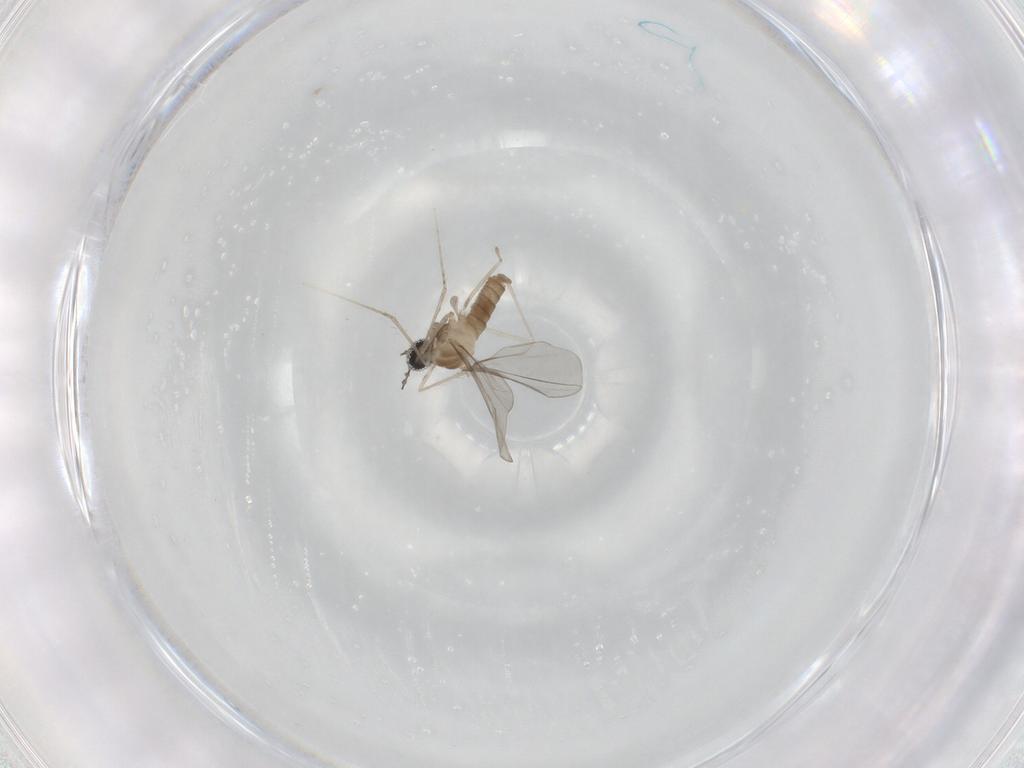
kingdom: Animalia
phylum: Arthropoda
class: Insecta
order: Diptera
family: Cecidomyiidae
